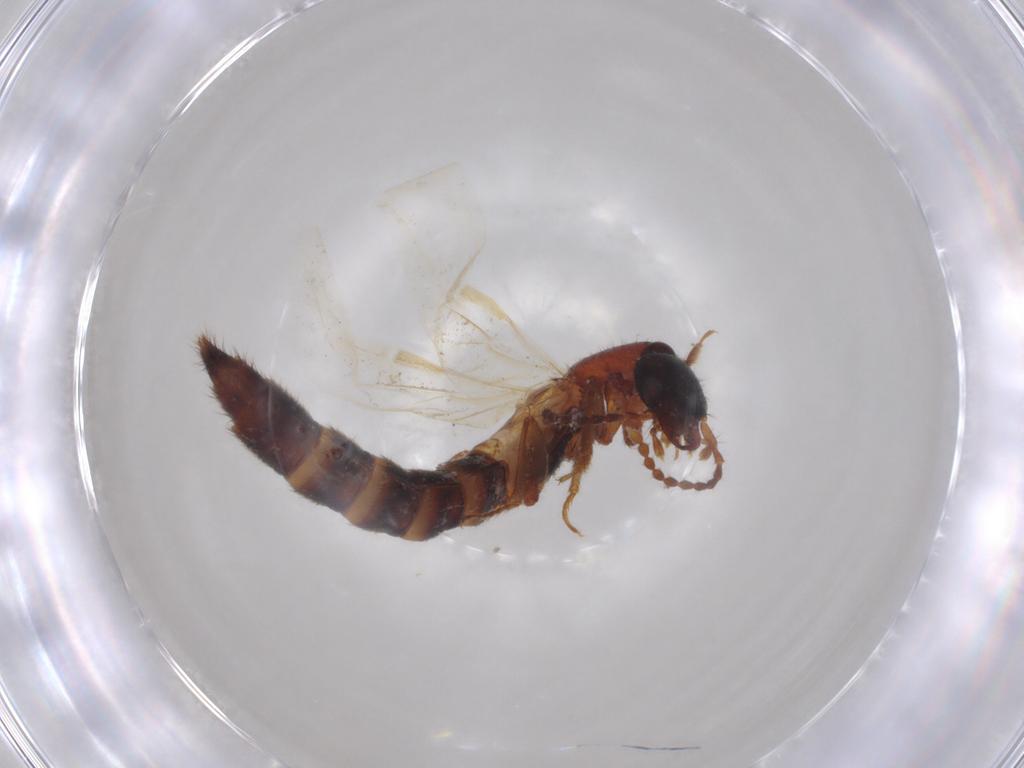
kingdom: Animalia
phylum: Arthropoda
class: Insecta
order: Coleoptera
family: Staphylinidae
